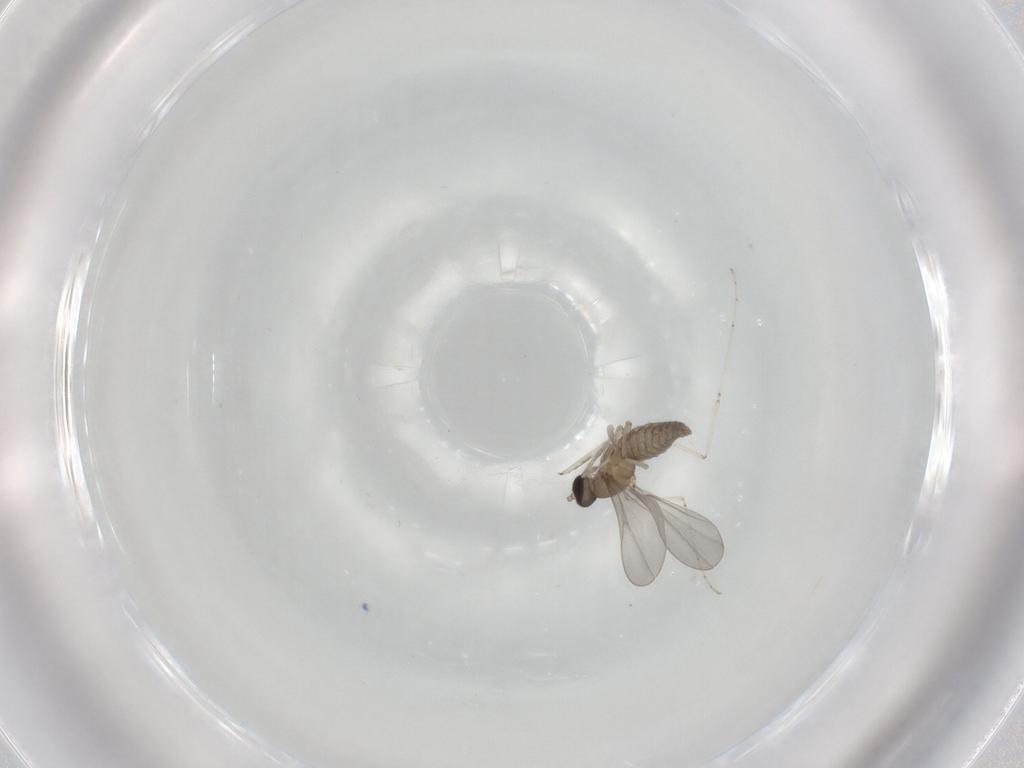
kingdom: Animalia
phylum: Arthropoda
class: Insecta
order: Diptera
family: Cecidomyiidae
